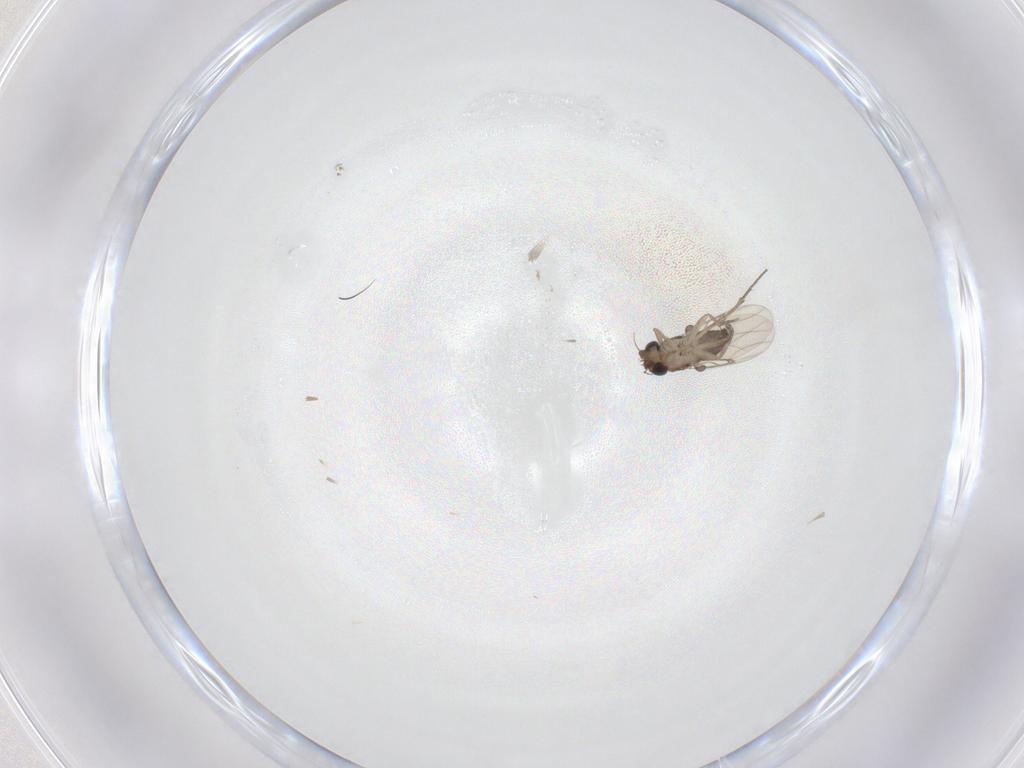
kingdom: Animalia
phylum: Arthropoda
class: Insecta
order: Diptera
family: Phoridae
